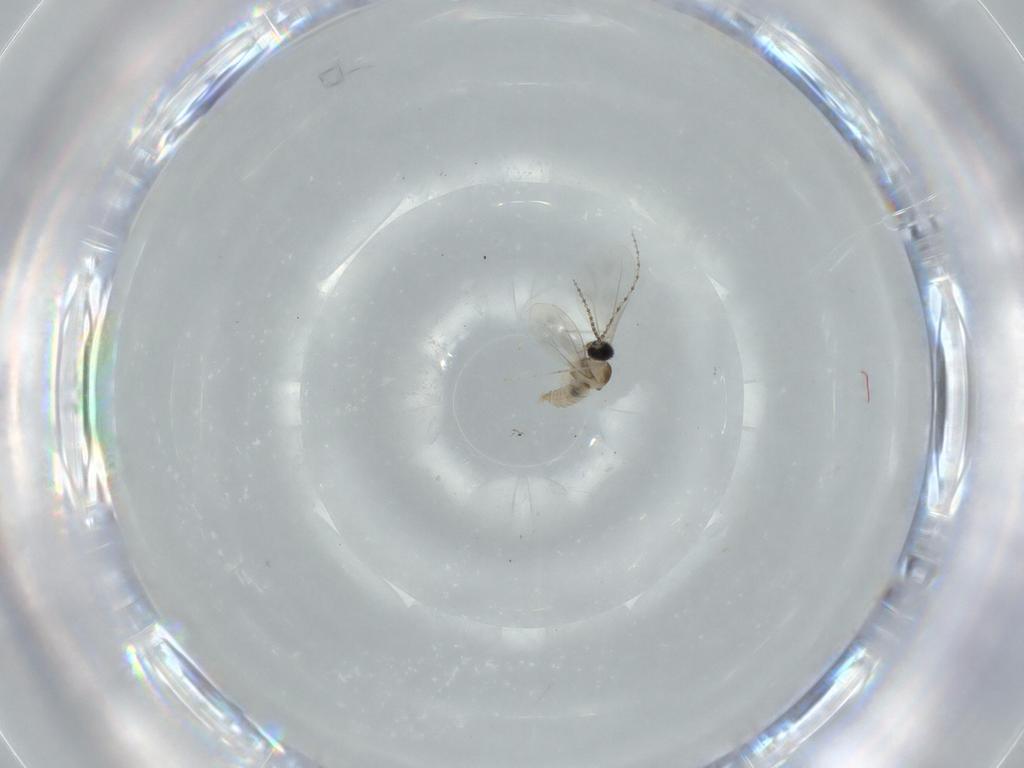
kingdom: Animalia
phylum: Arthropoda
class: Insecta
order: Diptera
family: Cecidomyiidae
